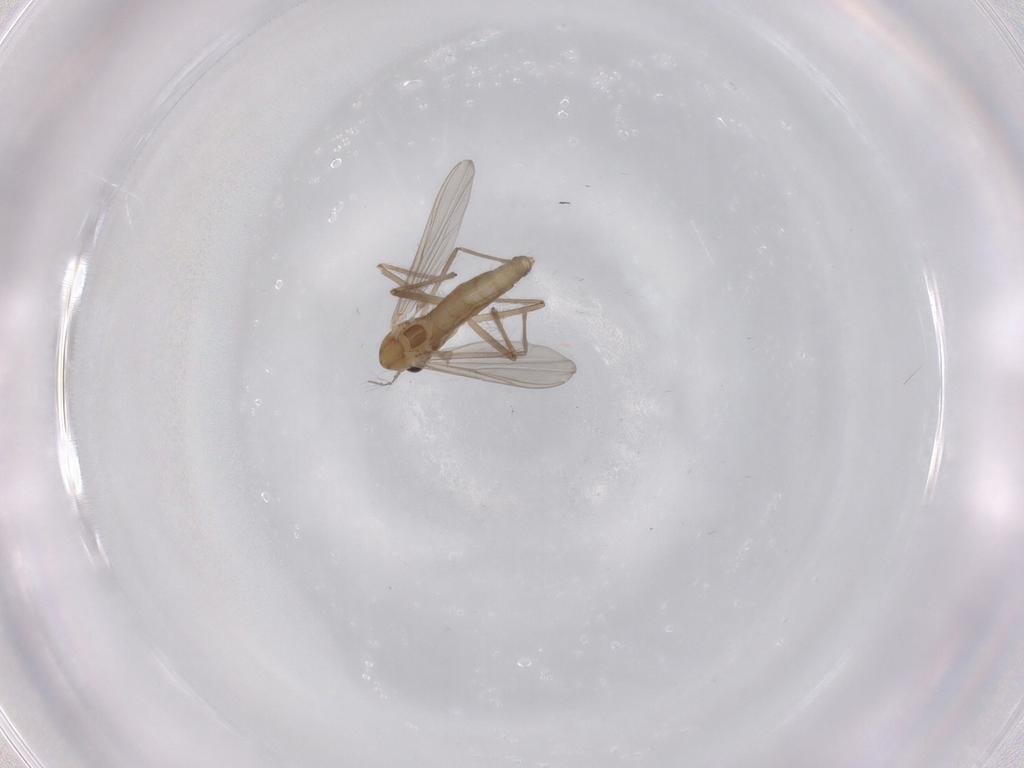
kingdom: Animalia
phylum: Arthropoda
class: Insecta
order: Diptera
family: Chironomidae
